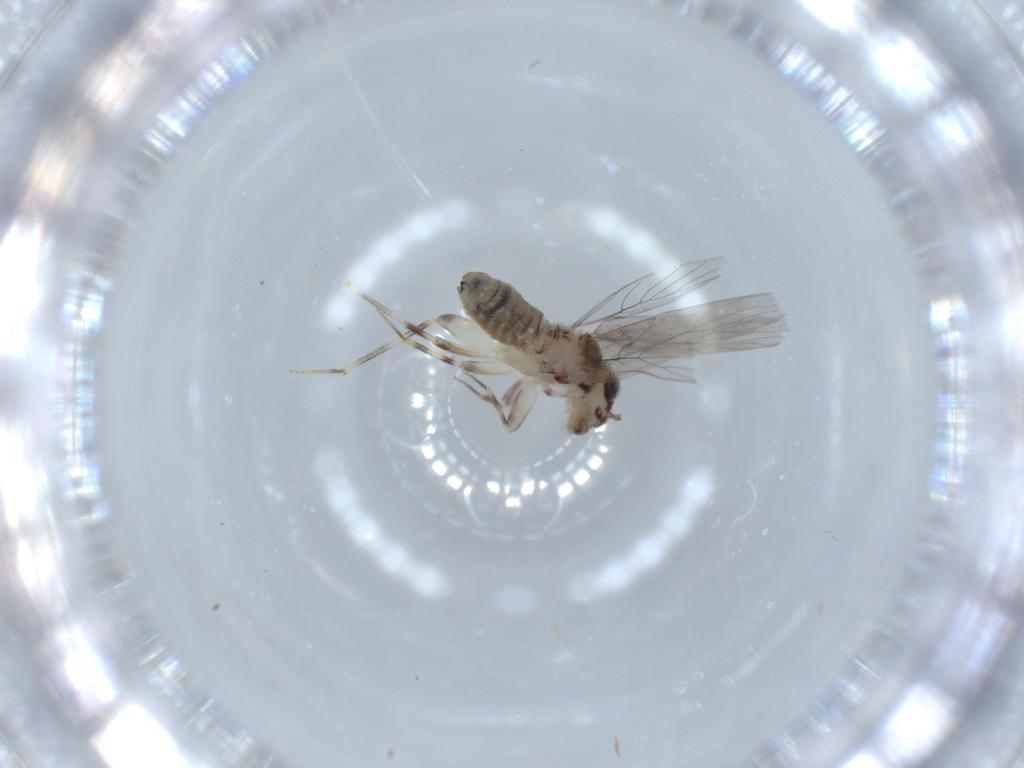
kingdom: Animalia
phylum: Arthropoda
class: Insecta
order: Psocodea
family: Lepidopsocidae
